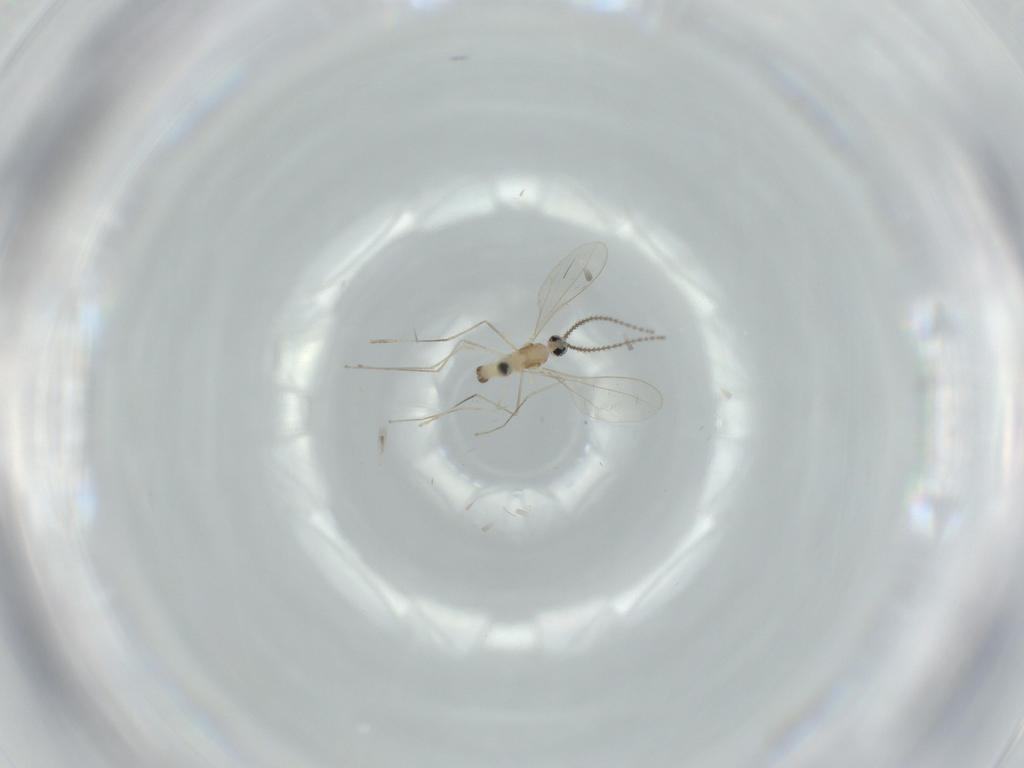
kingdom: Animalia
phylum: Arthropoda
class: Insecta
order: Diptera
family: Cecidomyiidae
